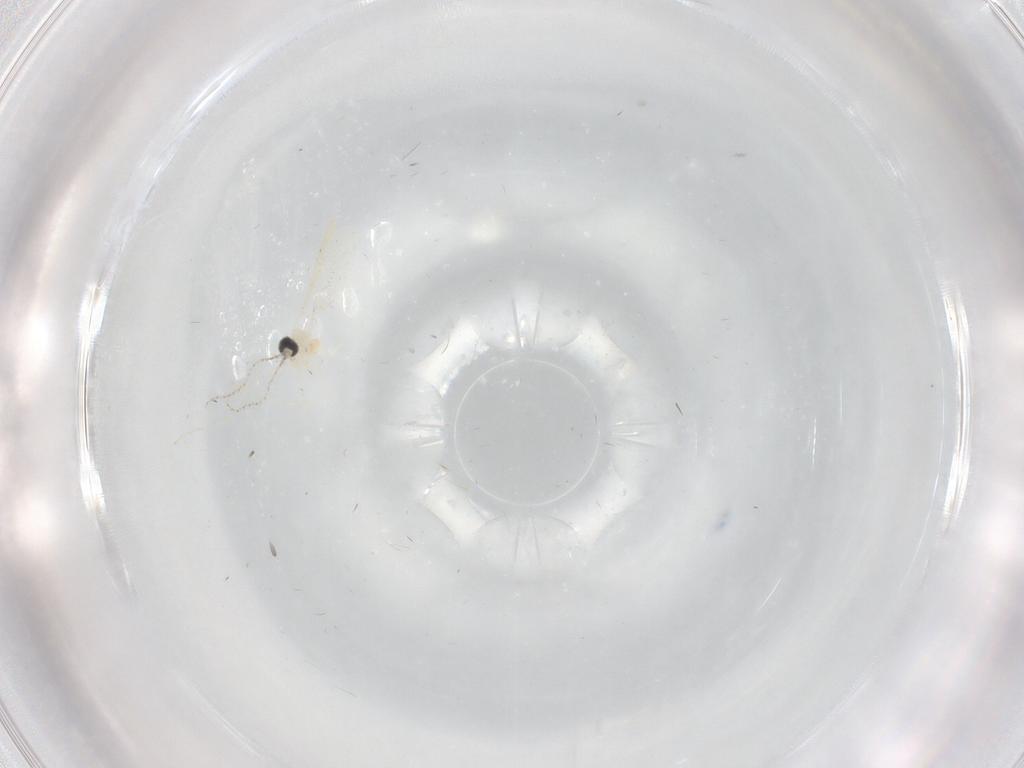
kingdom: Animalia
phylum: Arthropoda
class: Insecta
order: Diptera
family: Cecidomyiidae
